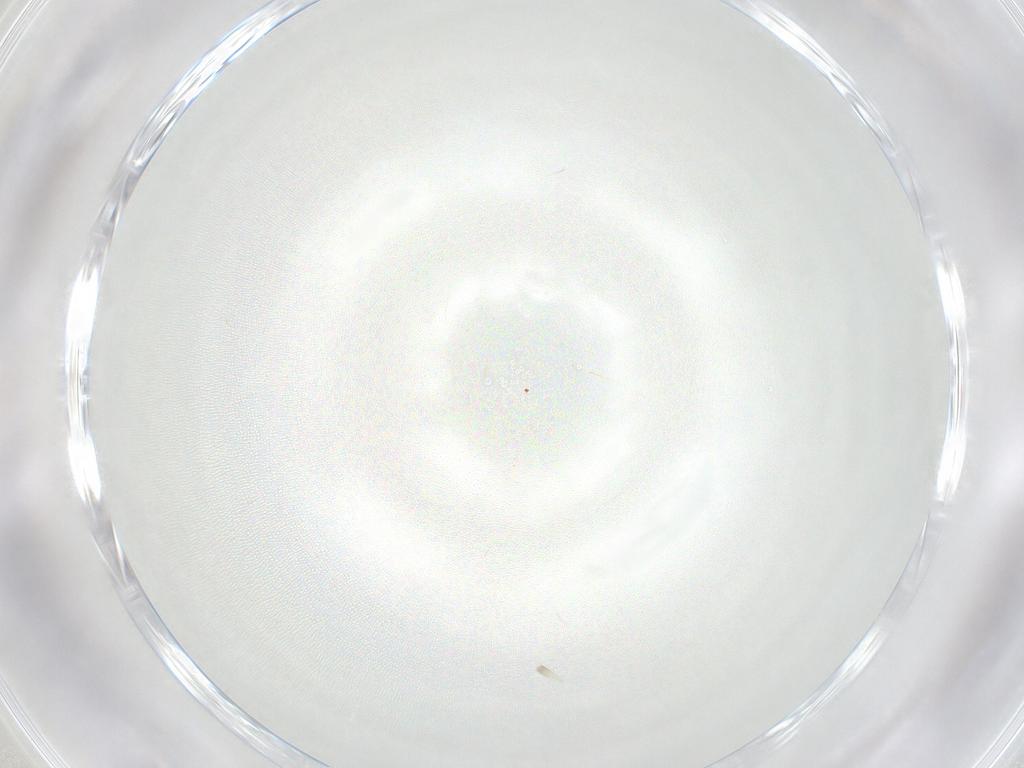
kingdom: Animalia
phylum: Arthropoda
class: Arachnida
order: Trombidiformes
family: Anystidae
